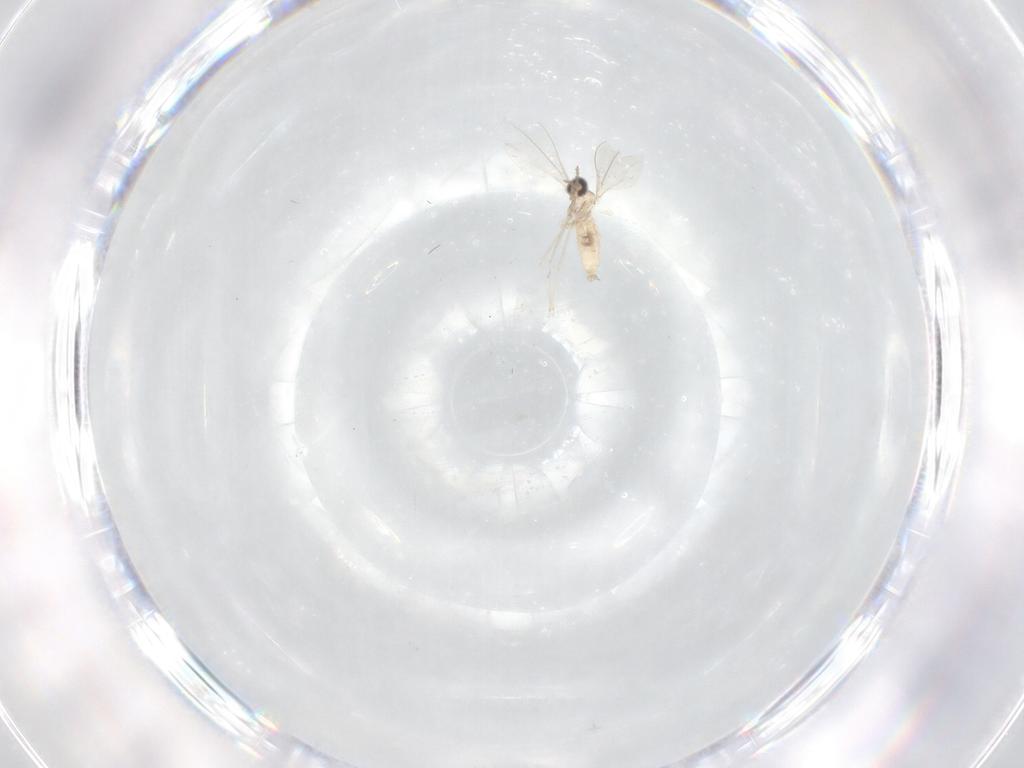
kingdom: Animalia
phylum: Arthropoda
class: Insecta
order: Diptera
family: Cecidomyiidae
